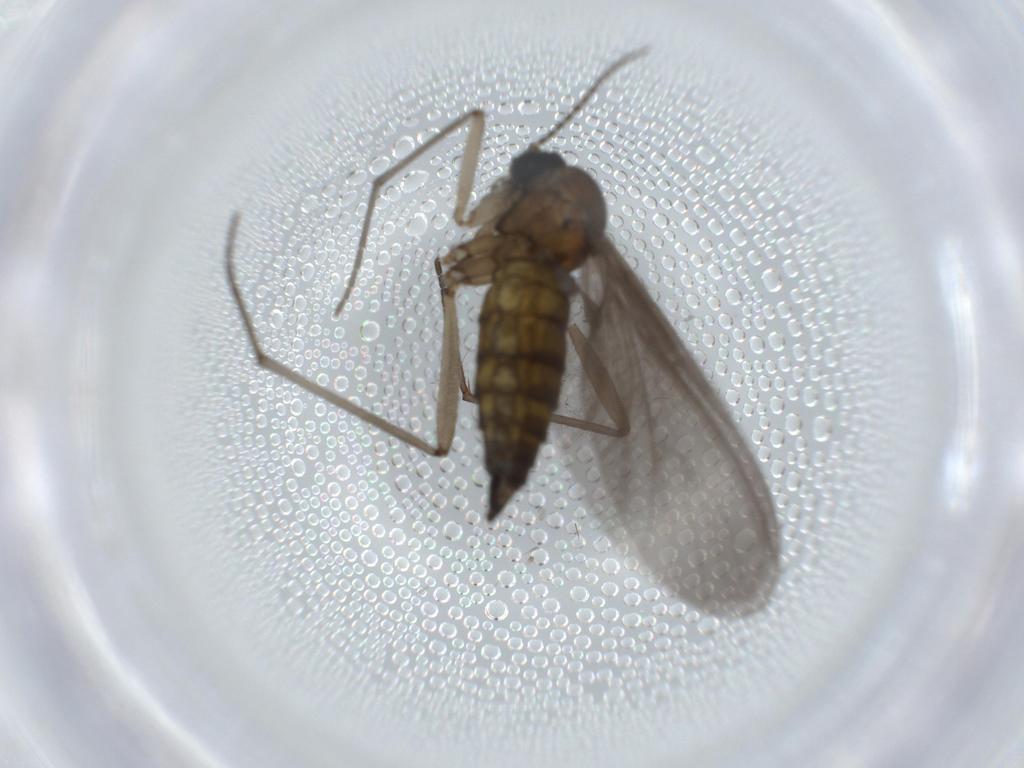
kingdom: Animalia
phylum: Arthropoda
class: Insecta
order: Diptera
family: Sciaridae
